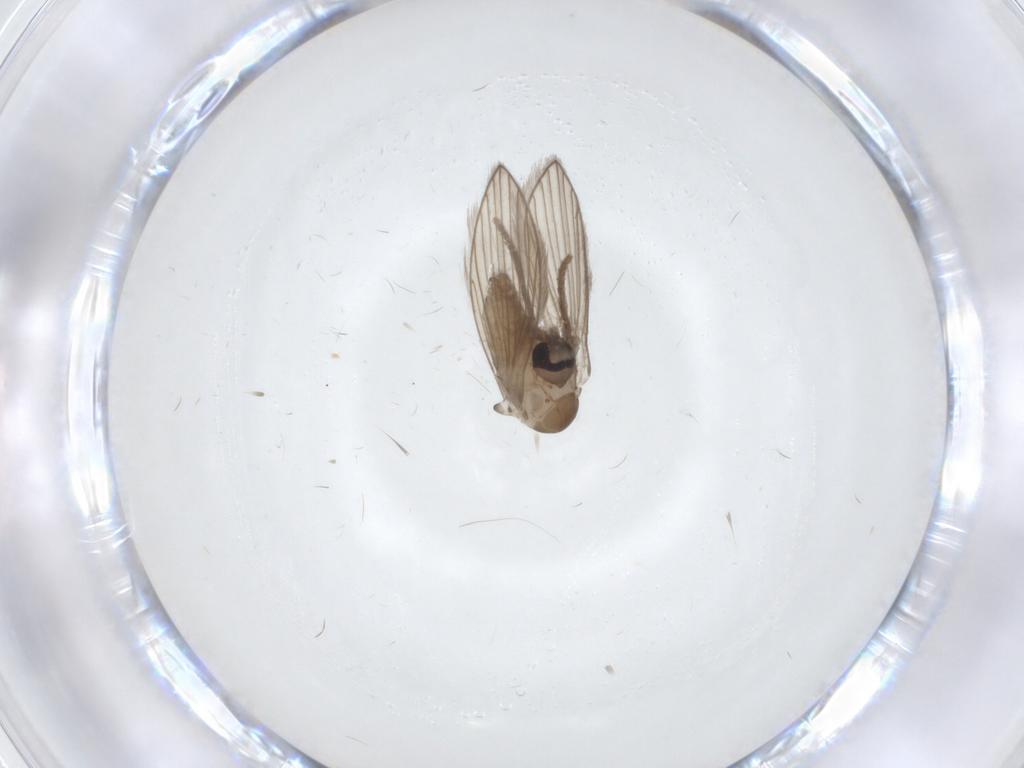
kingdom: Animalia
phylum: Arthropoda
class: Insecta
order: Diptera
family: Psychodidae
